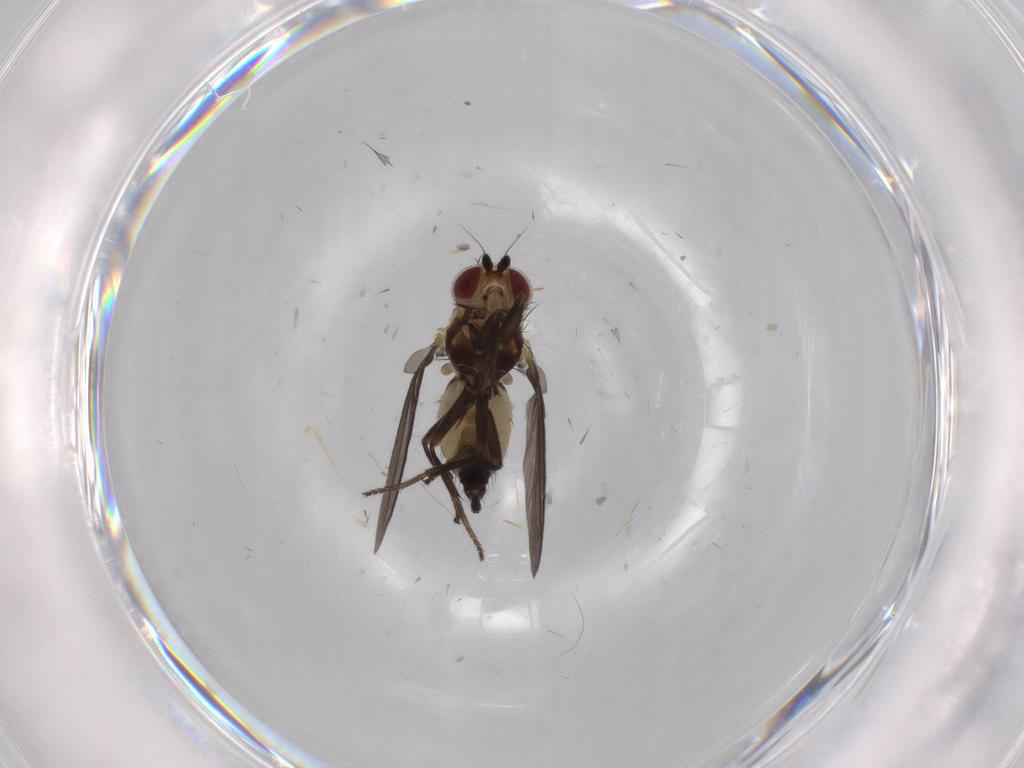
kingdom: Animalia
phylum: Arthropoda
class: Insecta
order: Diptera
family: Agromyzidae
